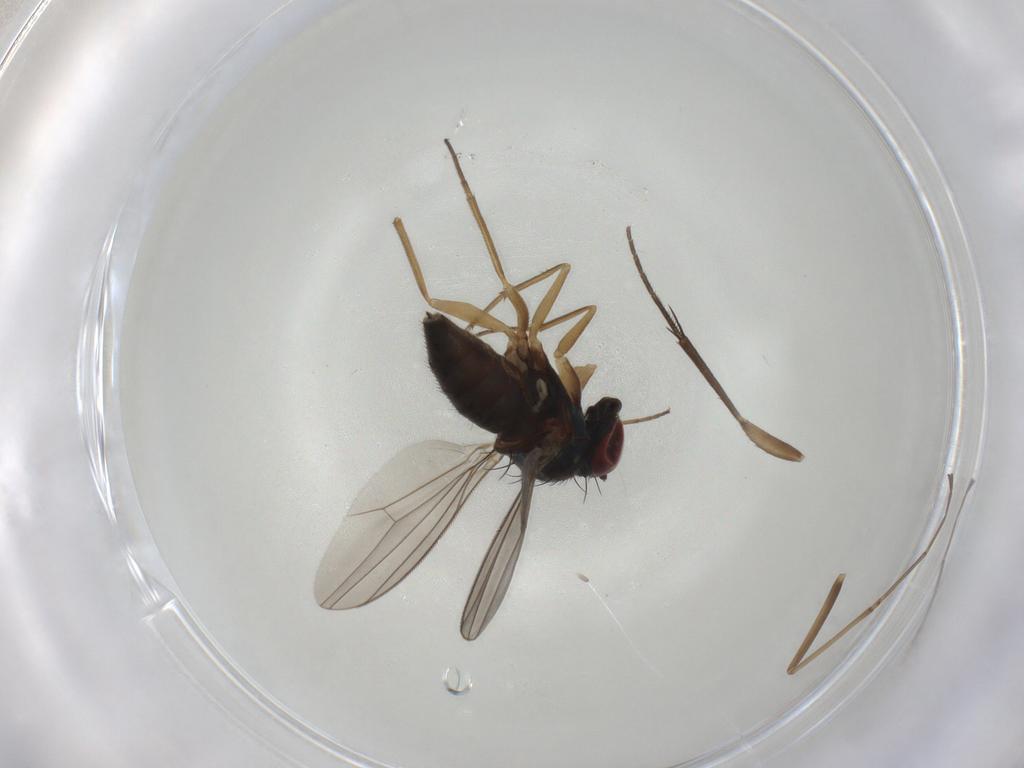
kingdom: Animalia
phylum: Arthropoda
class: Insecta
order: Diptera
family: Dolichopodidae
